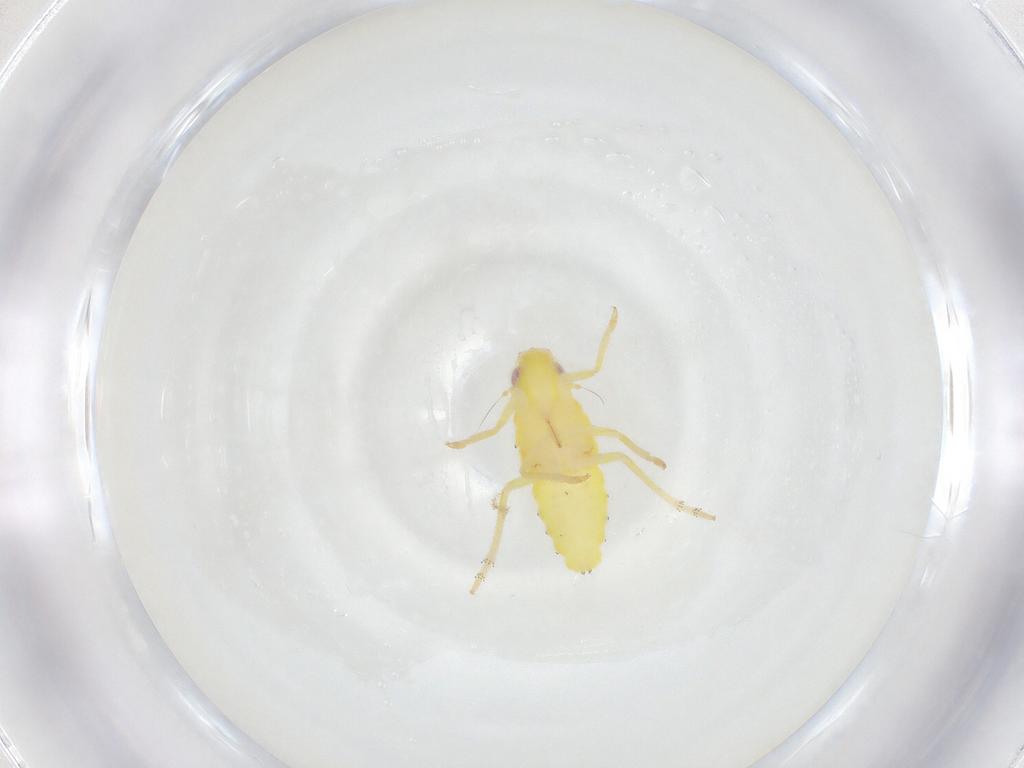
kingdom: Animalia
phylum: Arthropoda
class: Insecta
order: Hemiptera
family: Tropiduchidae
